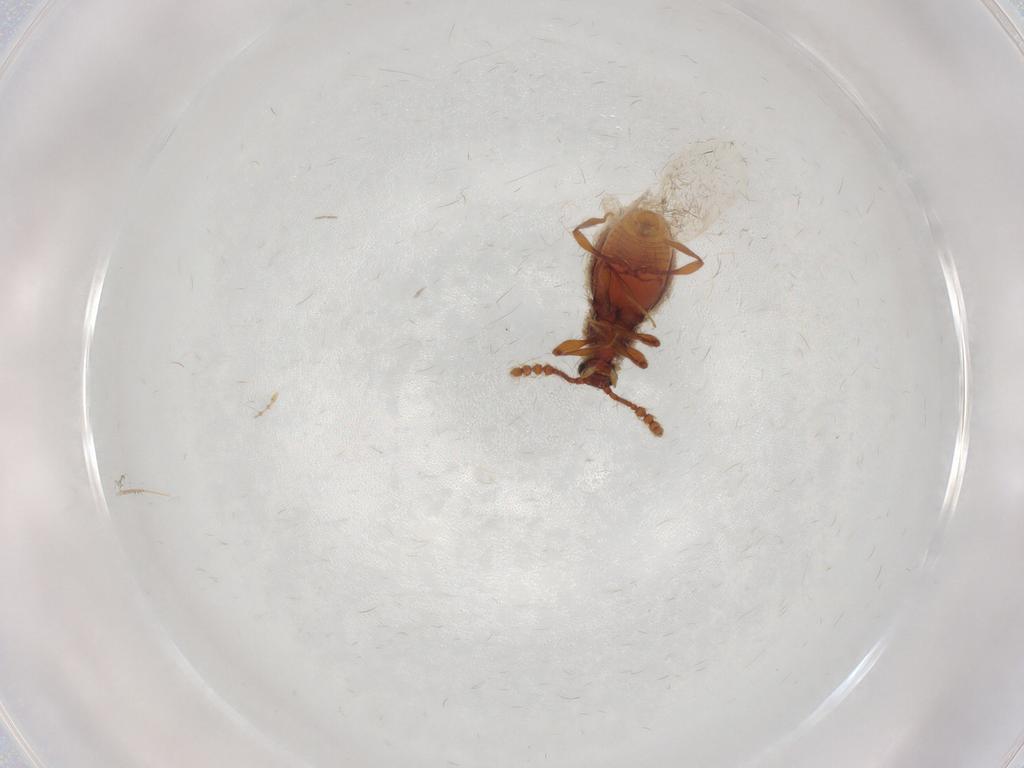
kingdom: Animalia
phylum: Arthropoda
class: Insecta
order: Coleoptera
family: Staphylinidae
